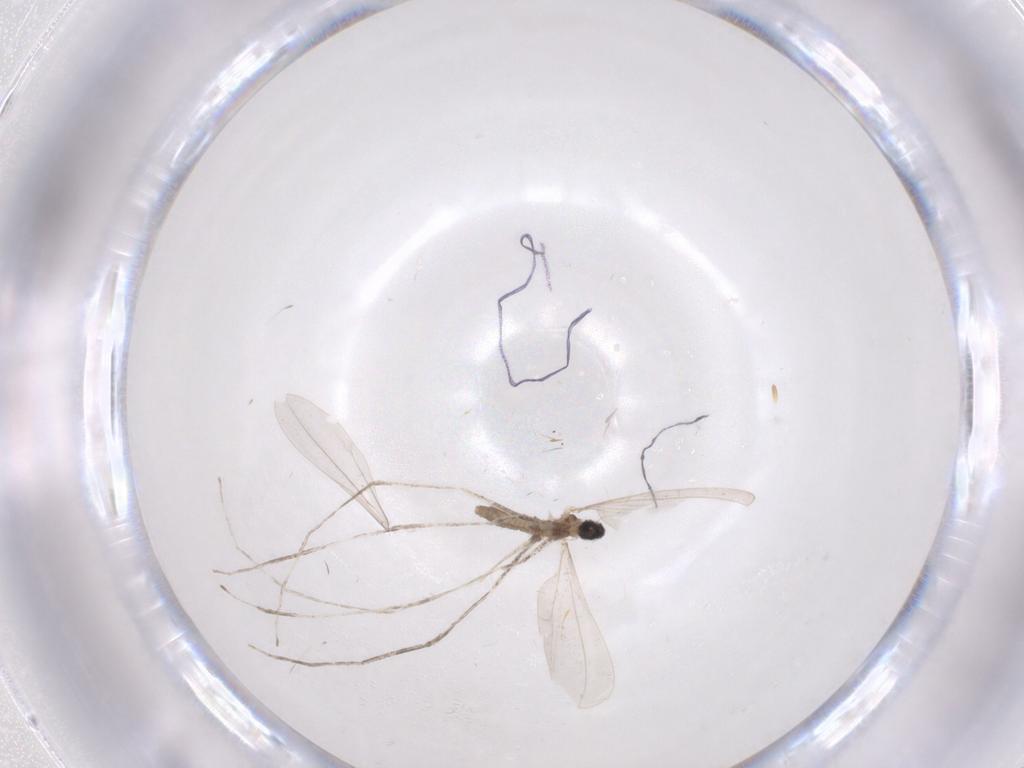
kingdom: Animalia
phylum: Arthropoda
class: Insecta
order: Diptera
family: Cecidomyiidae
